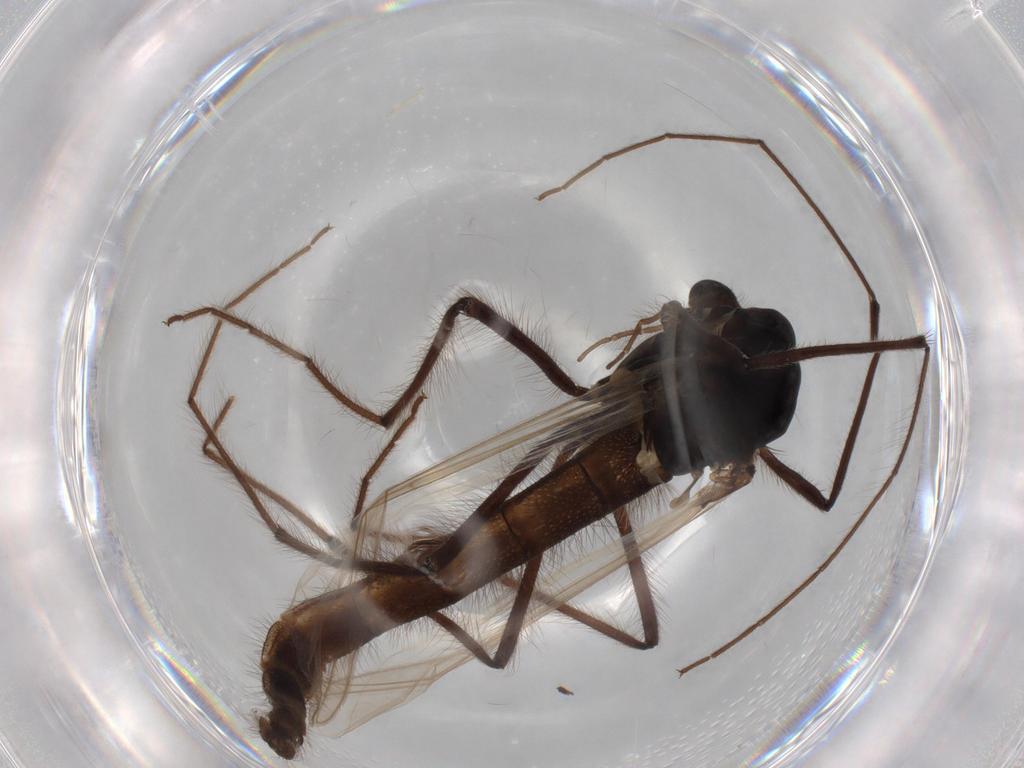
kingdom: Animalia
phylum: Arthropoda
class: Insecta
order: Diptera
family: Chironomidae
